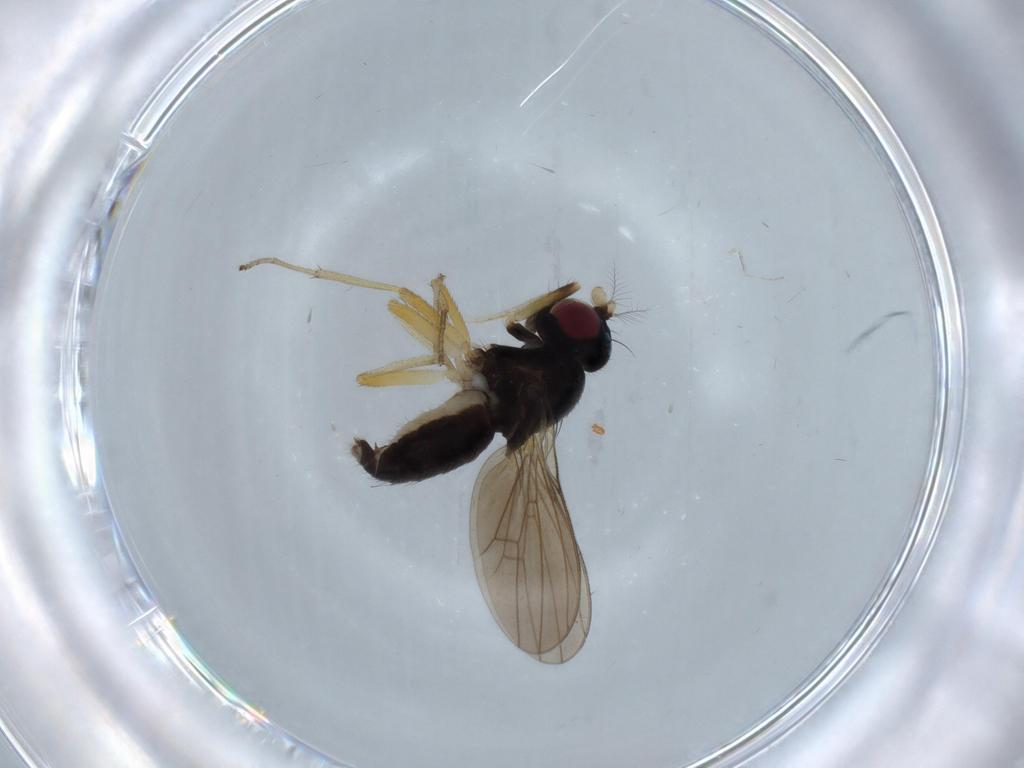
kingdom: Animalia
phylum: Arthropoda
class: Insecta
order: Diptera
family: Lauxaniidae
